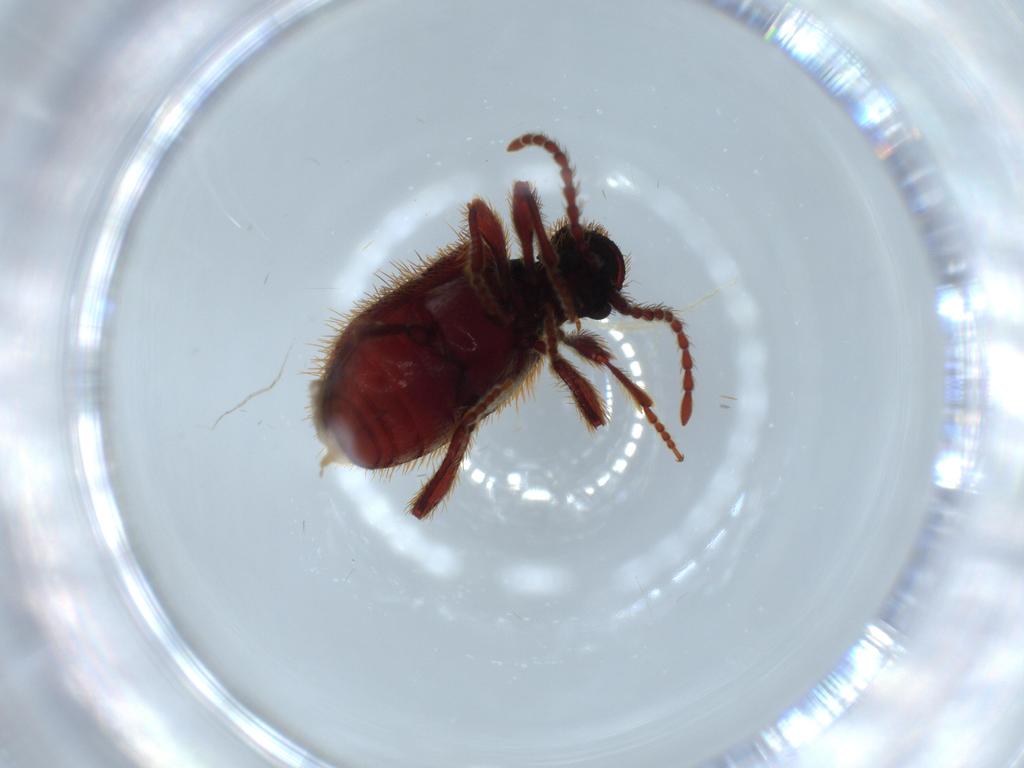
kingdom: Animalia
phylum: Arthropoda
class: Insecta
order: Coleoptera
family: Ptinidae
